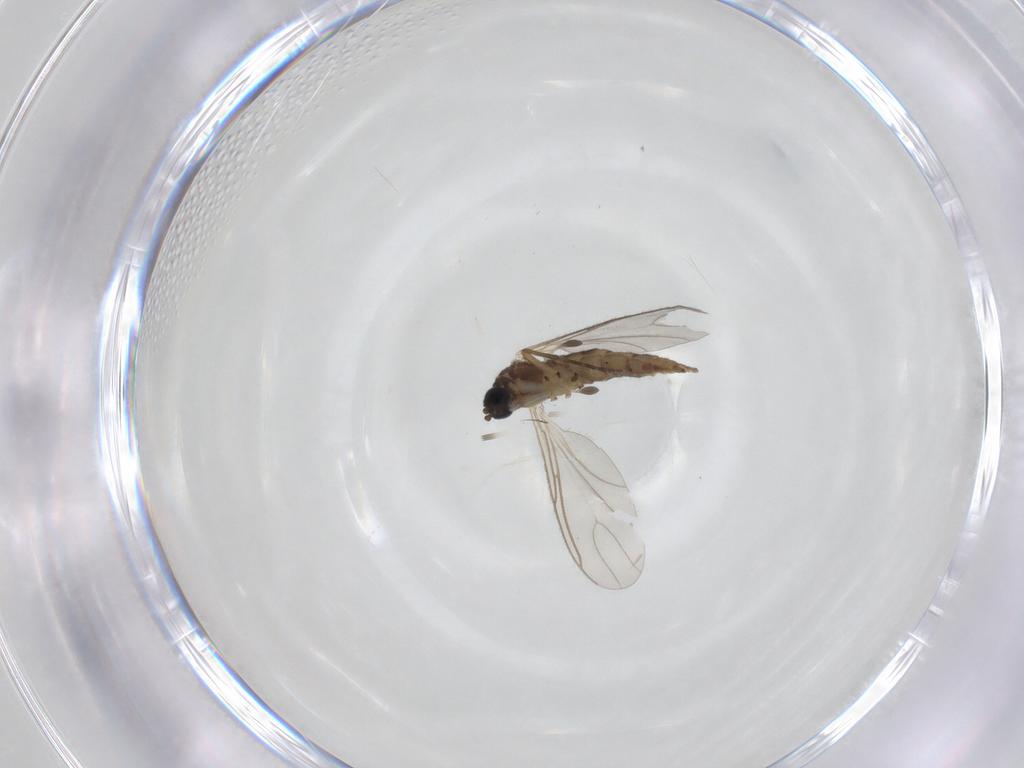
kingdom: Animalia
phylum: Arthropoda
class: Insecta
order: Diptera
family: Sciaridae
